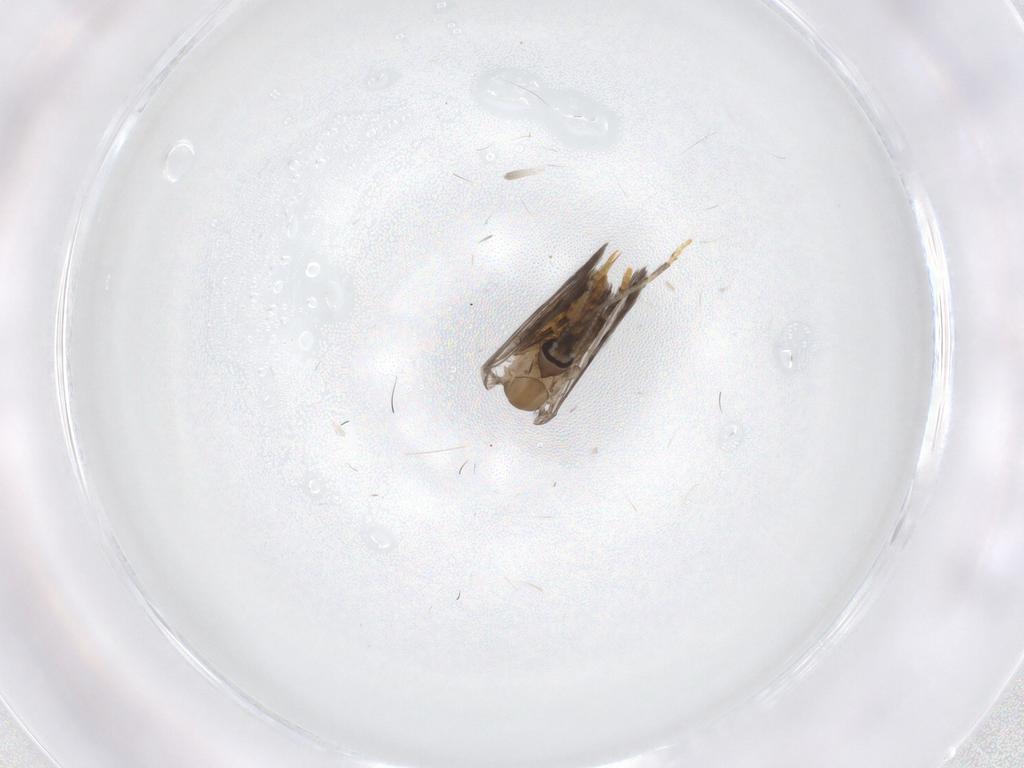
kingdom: Animalia
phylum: Arthropoda
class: Insecta
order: Diptera
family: Psychodidae
